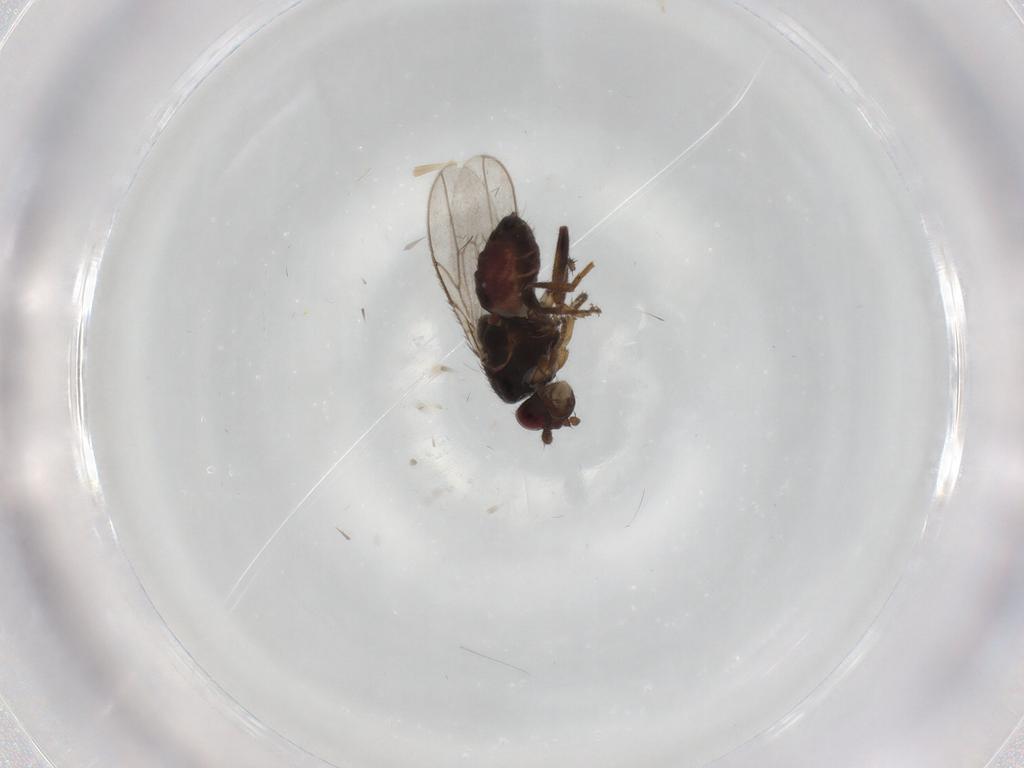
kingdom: Animalia
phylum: Arthropoda
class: Insecta
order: Diptera
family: Sphaeroceridae
